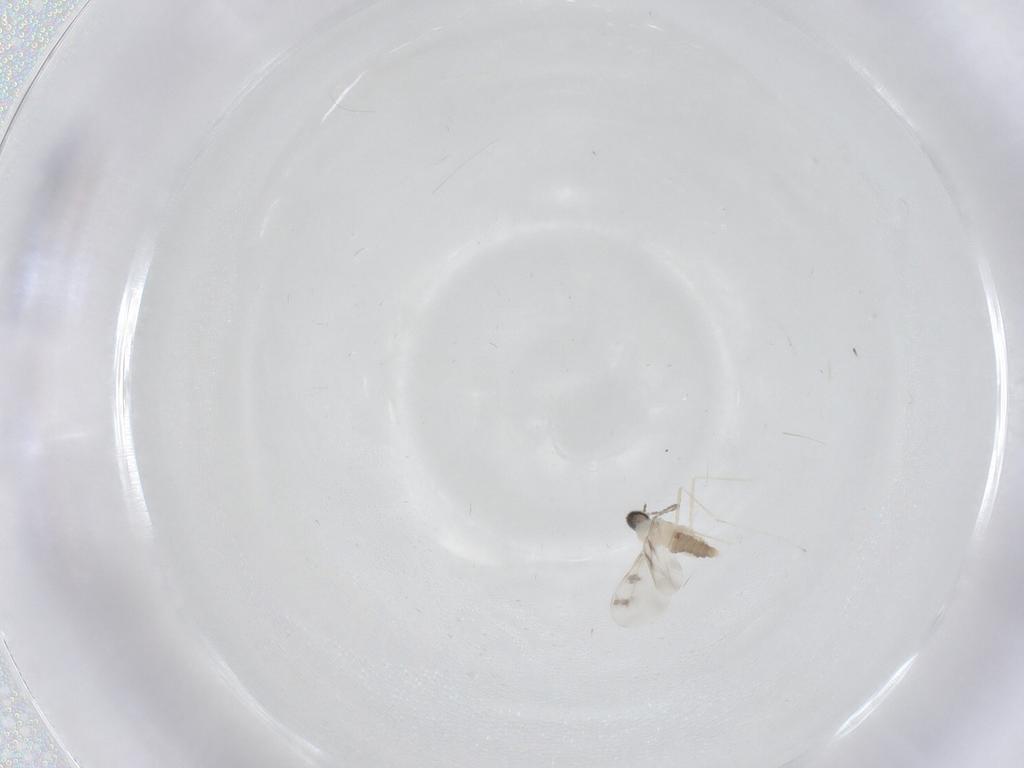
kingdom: Animalia
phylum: Arthropoda
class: Insecta
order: Diptera
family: Cecidomyiidae
